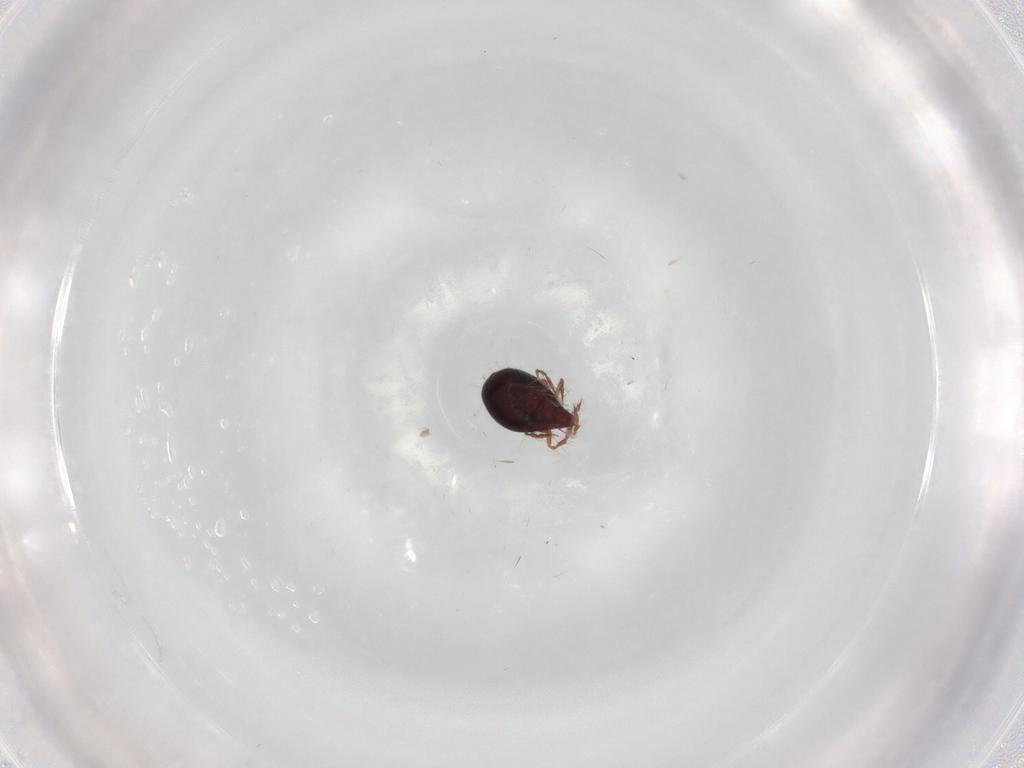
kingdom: Animalia
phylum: Arthropoda
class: Arachnida
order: Sarcoptiformes
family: Ceratoppiidae
